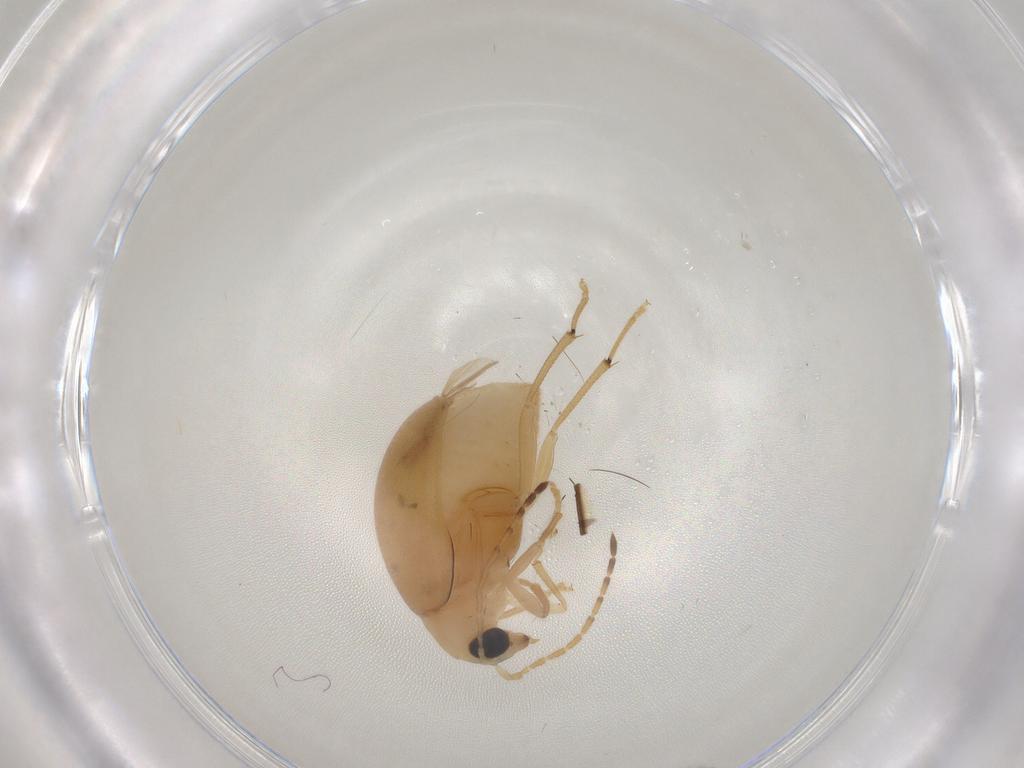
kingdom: Animalia
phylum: Arthropoda
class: Insecta
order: Coleoptera
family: Chrysomelidae
